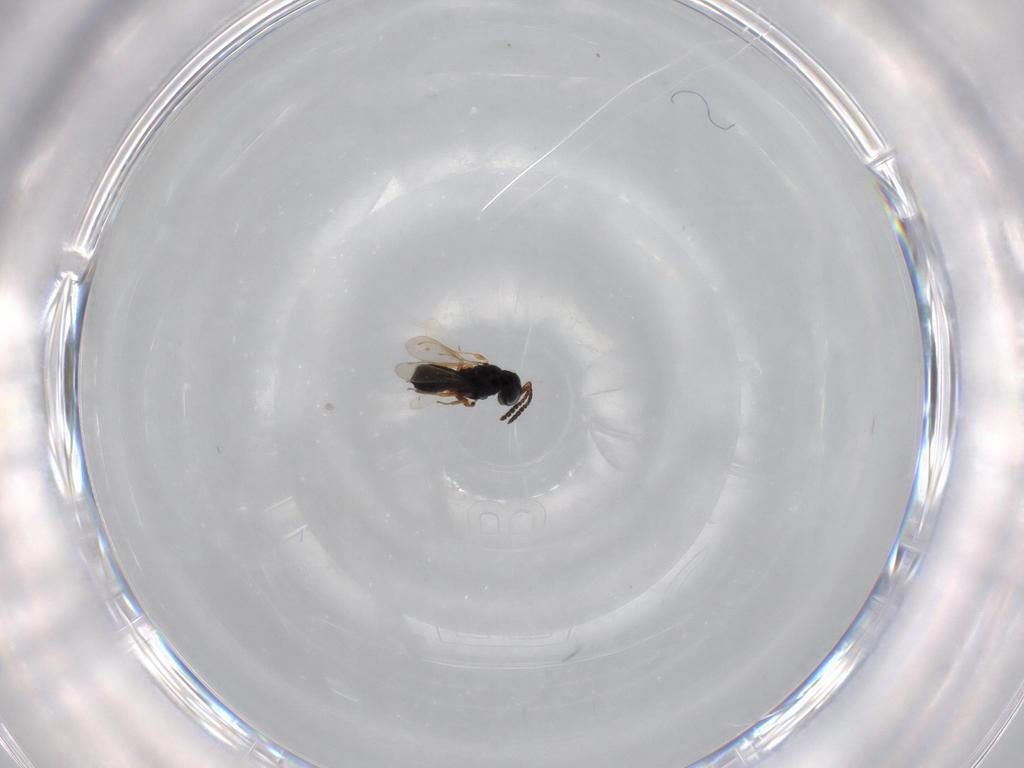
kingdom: Animalia
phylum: Arthropoda
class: Insecta
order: Hymenoptera
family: Scelionidae
